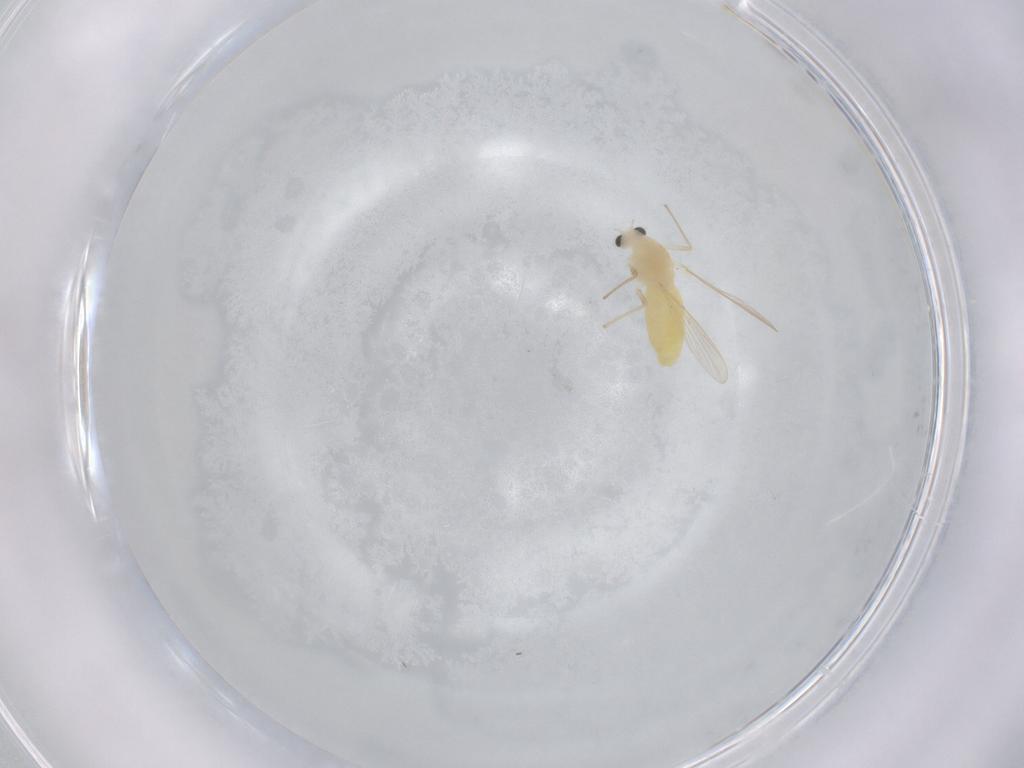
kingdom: Animalia
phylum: Arthropoda
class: Insecta
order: Diptera
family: Chironomidae
